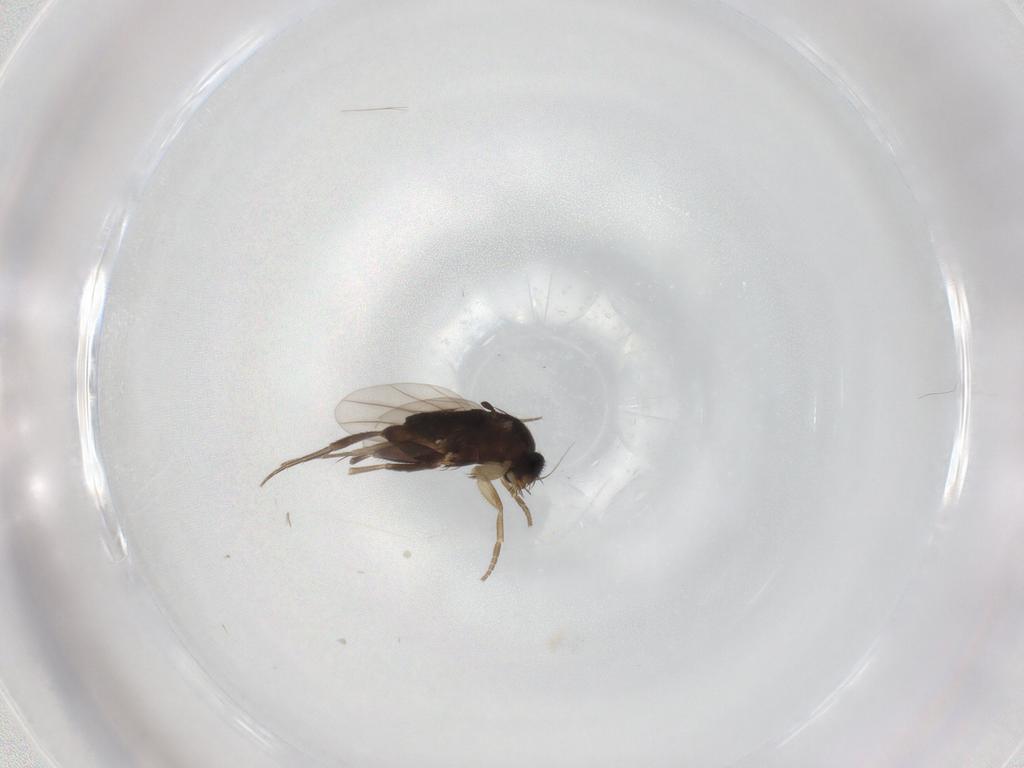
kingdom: Animalia
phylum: Arthropoda
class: Insecta
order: Diptera
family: Phoridae
